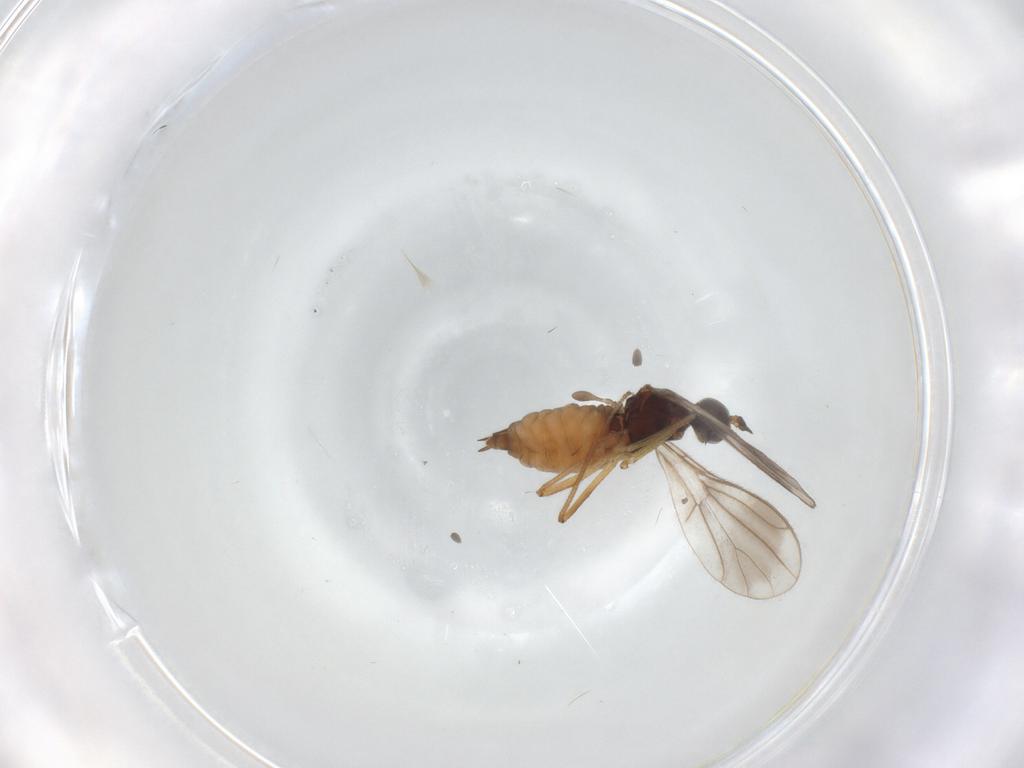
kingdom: Animalia
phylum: Arthropoda
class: Insecta
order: Diptera
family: Empididae
